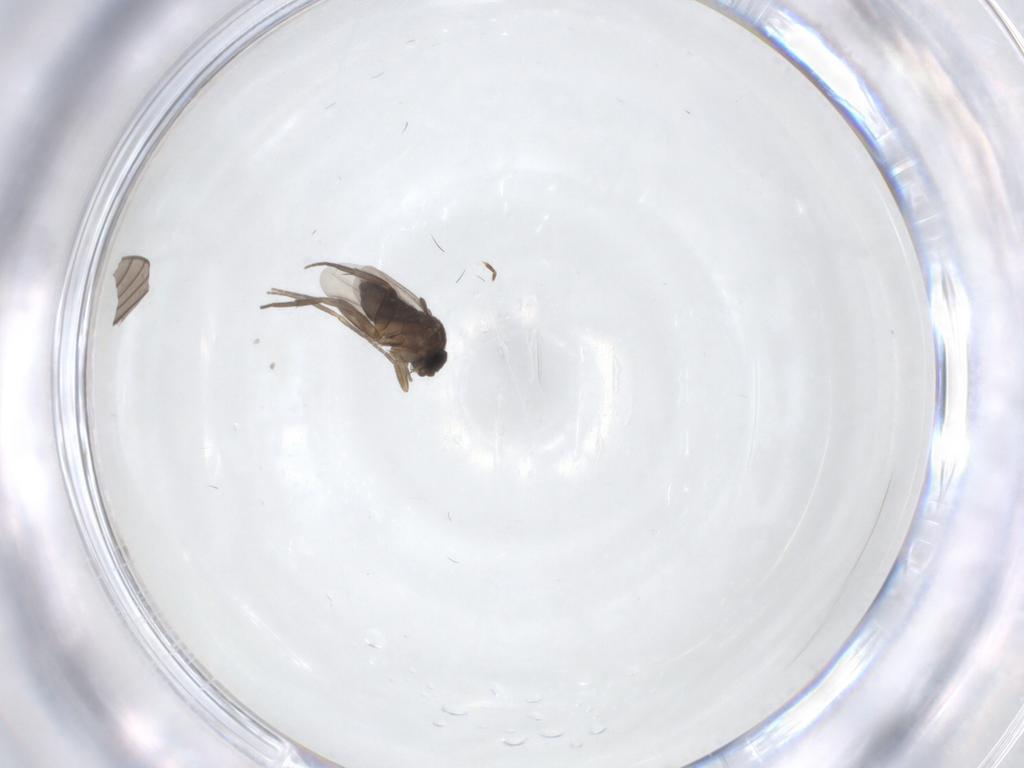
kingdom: Animalia
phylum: Arthropoda
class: Insecta
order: Diptera
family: Phoridae
